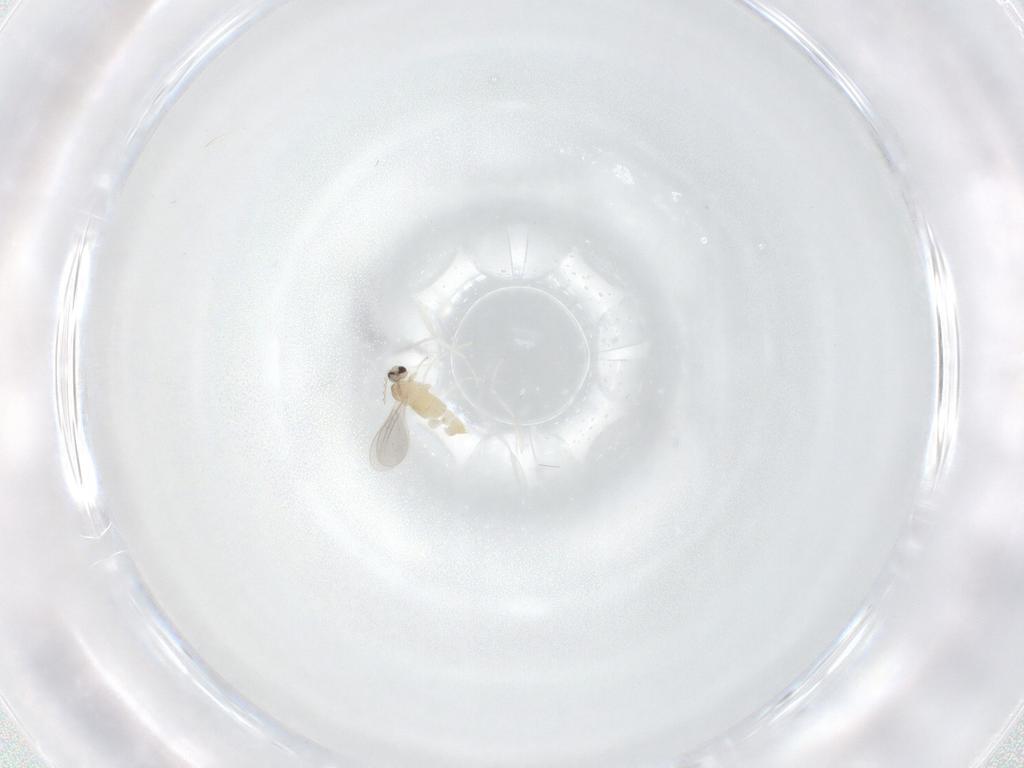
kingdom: Animalia
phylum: Arthropoda
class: Insecta
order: Diptera
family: Cecidomyiidae
